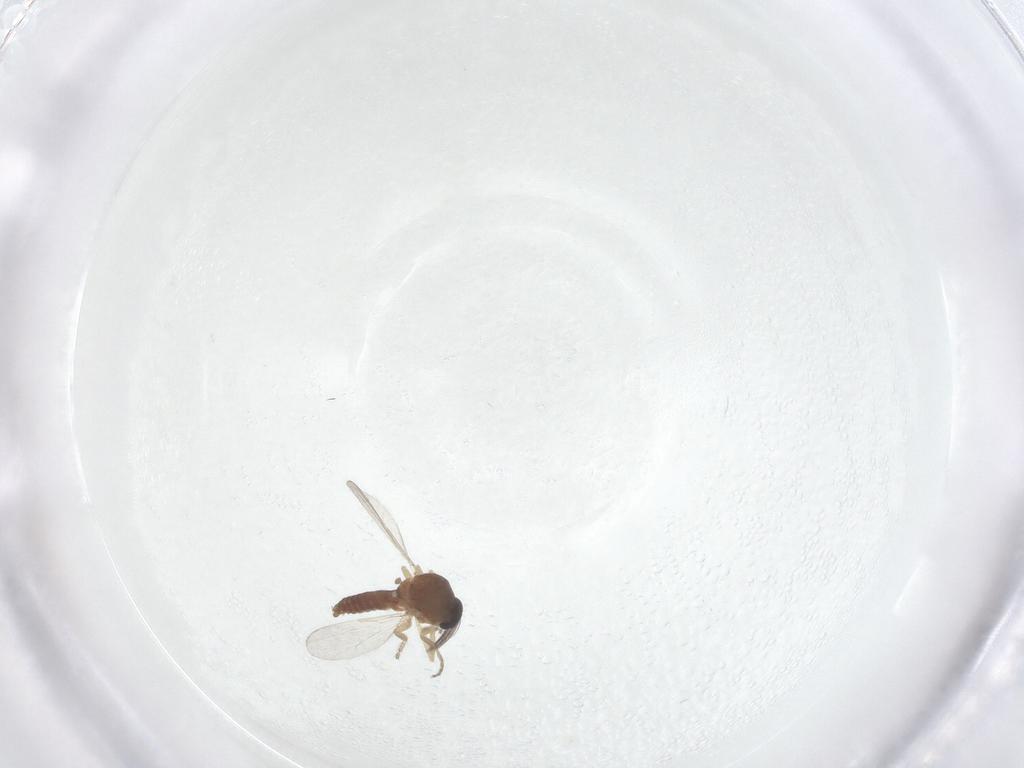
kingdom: Animalia
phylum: Arthropoda
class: Insecta
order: Diptera
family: Ceratopogonidae
